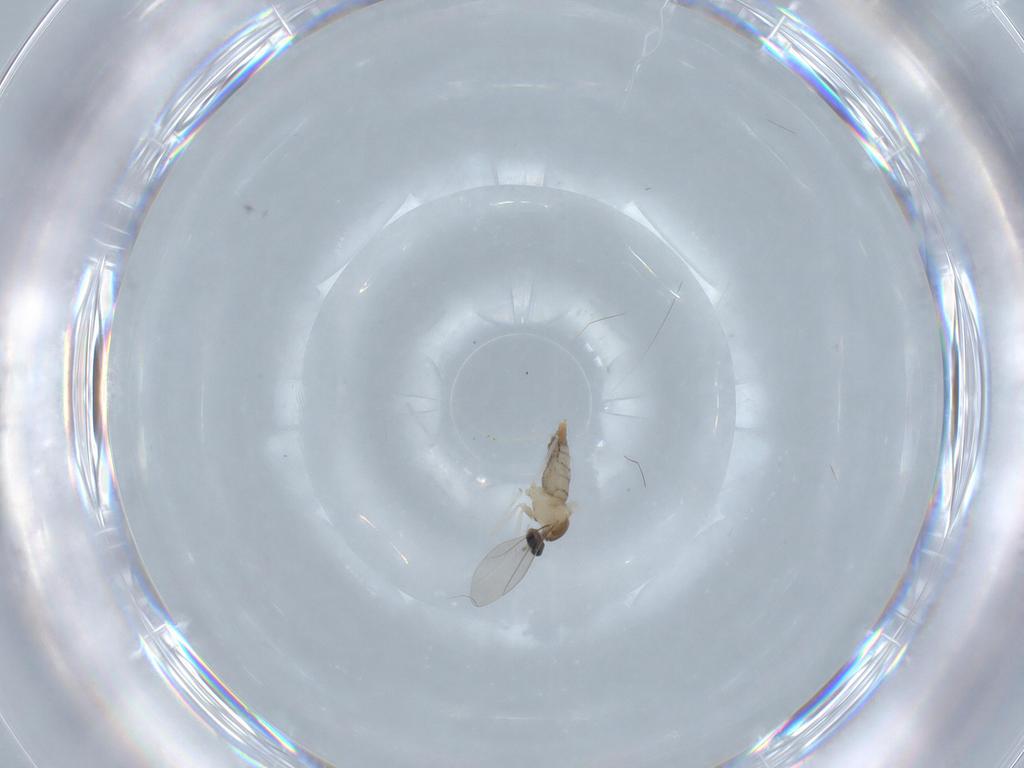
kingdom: Animalia
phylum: Arthropoda
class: Insecta
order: Diptera
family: Cecidomyiidae
